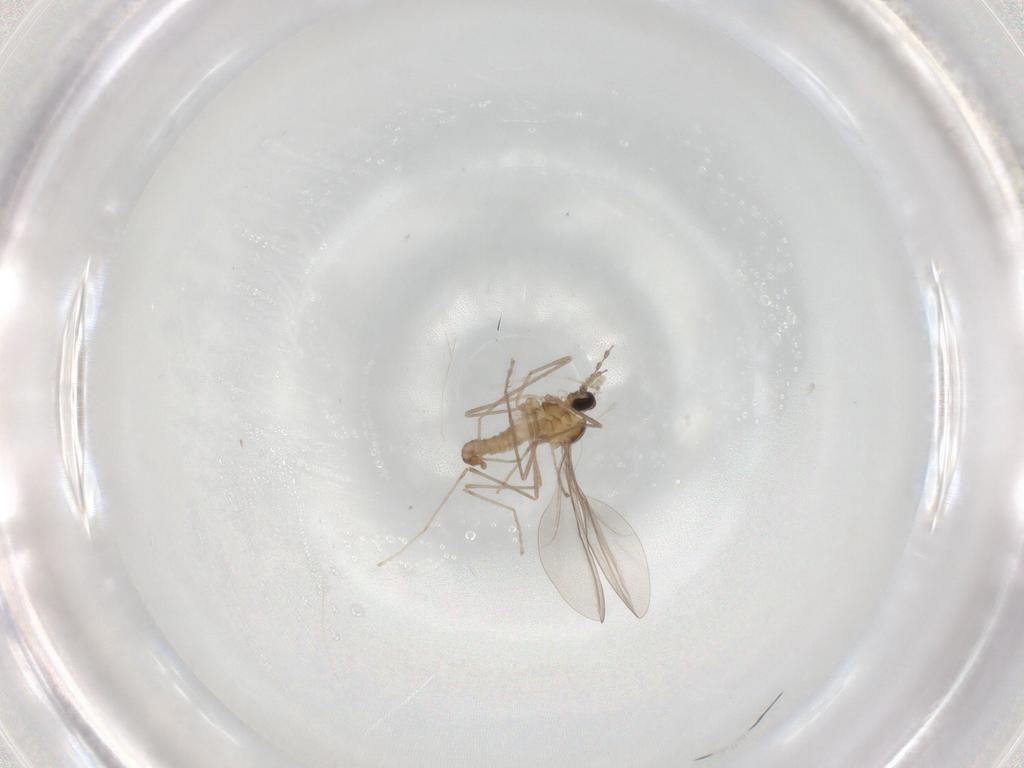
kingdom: Animalia
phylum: Arthropoda
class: Insecta
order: Diptera
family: Cecidomyiidae
